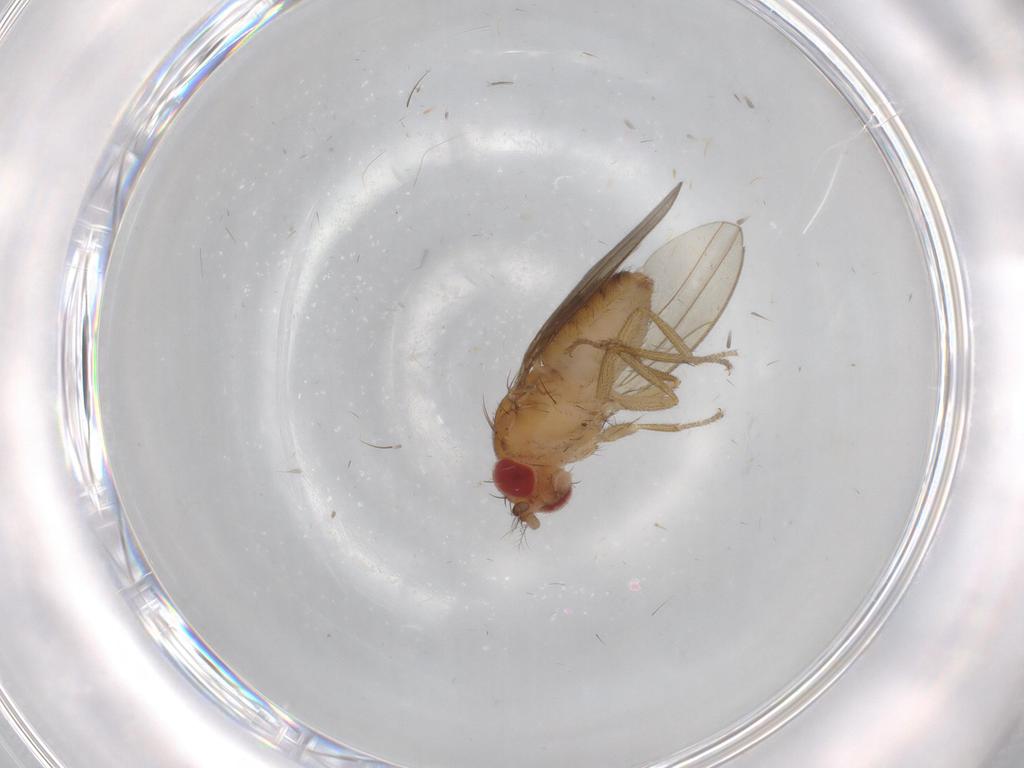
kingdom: Animalia
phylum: Arthropoda
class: Insecta
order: Diptera
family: Drosophilidae
